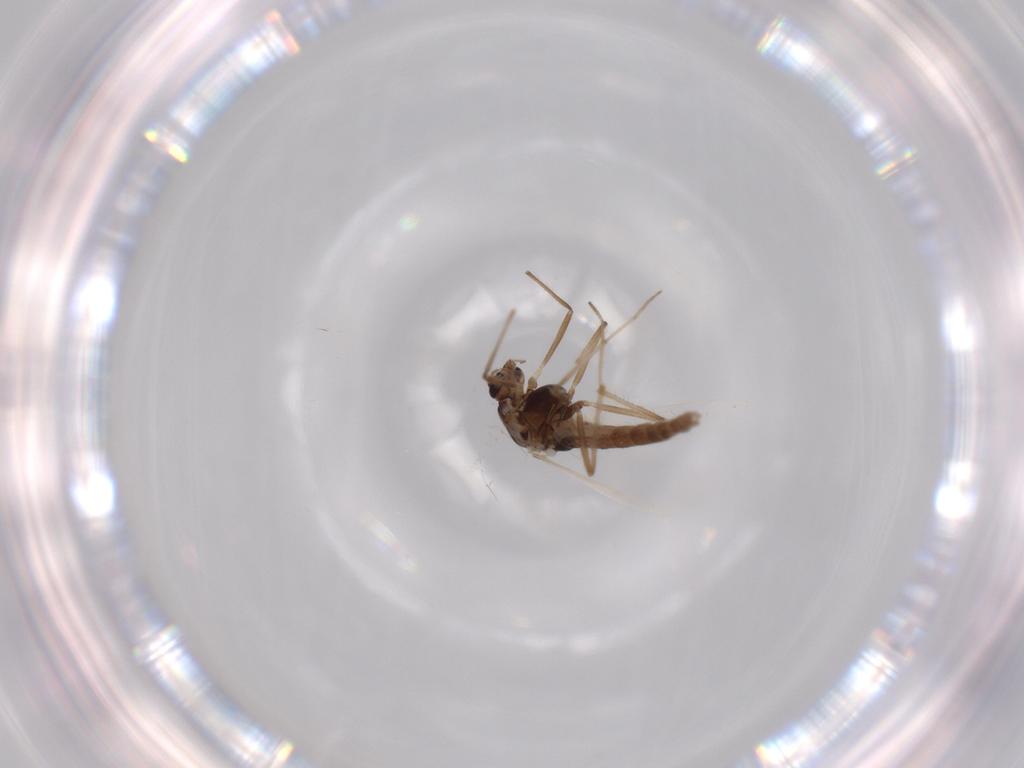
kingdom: Animalia
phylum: Arthropoda
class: Insecta
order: Diptera
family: Chironomidae
